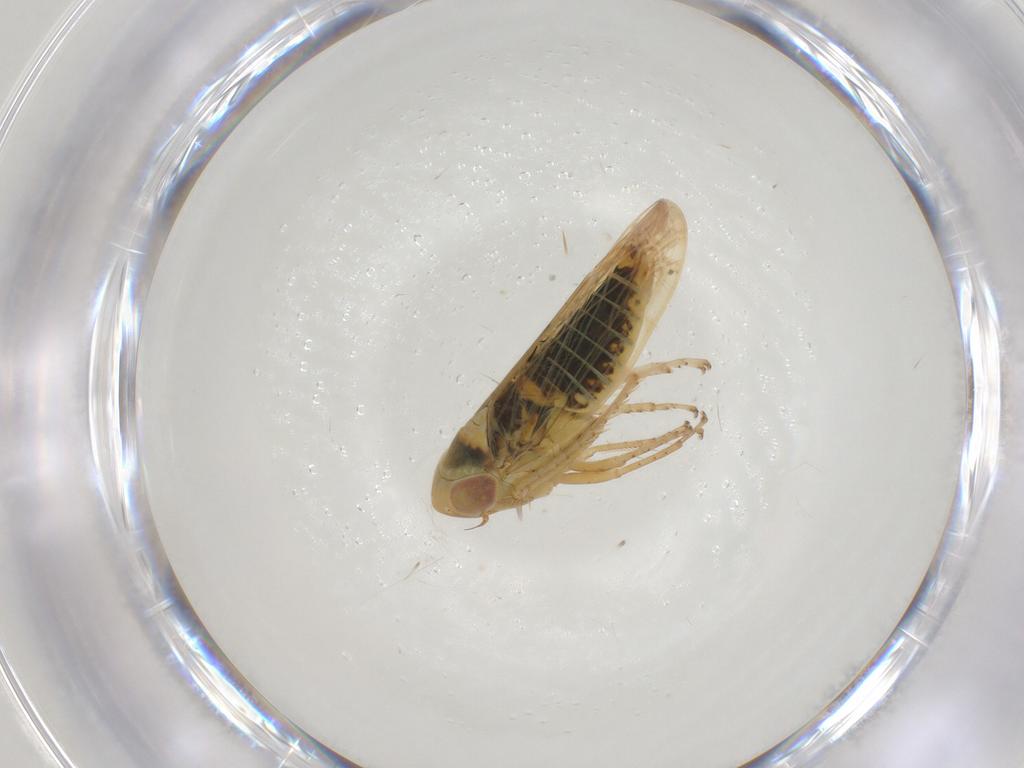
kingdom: Animalia
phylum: Arthropoda
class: Insecta
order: Hemiptera
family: Cicadellidae
